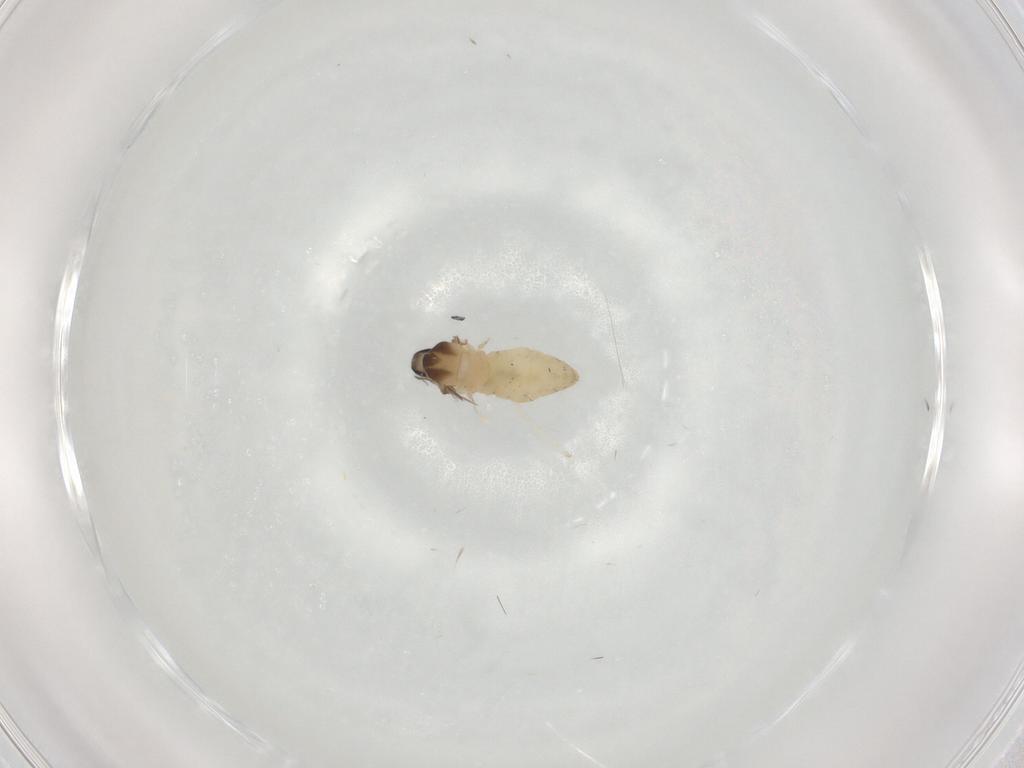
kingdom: Animalia
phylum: Arthropoda
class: Insecta
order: Diptera
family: Cecidomyiidae
